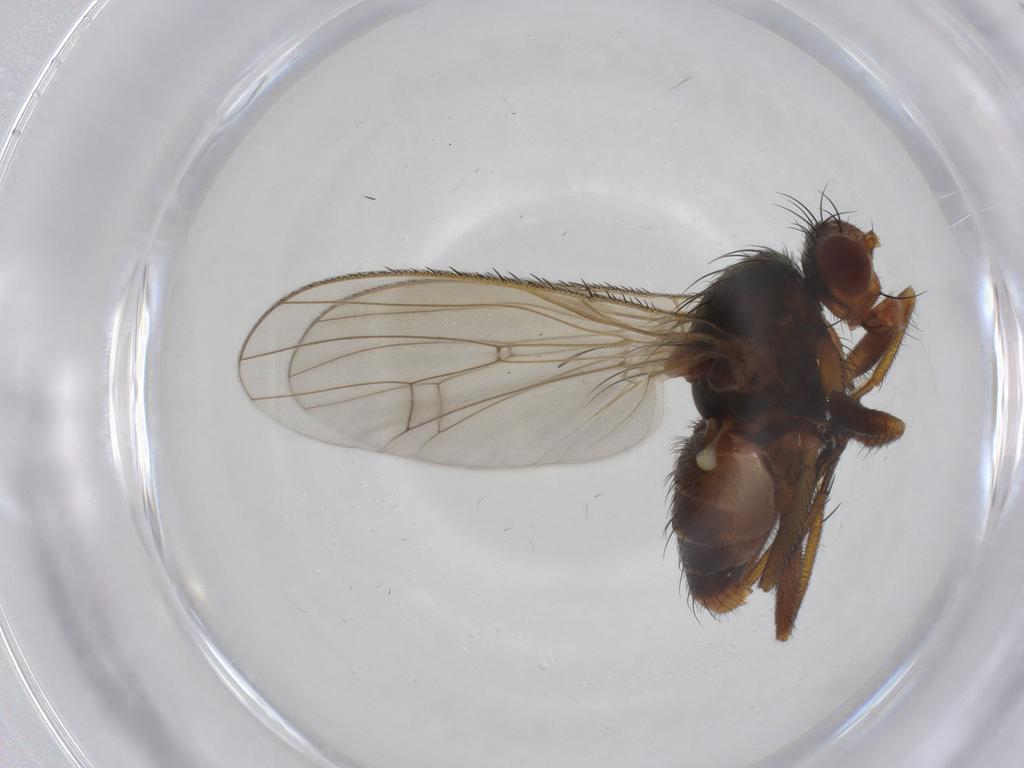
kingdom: Animalia
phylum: Arthropoda
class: Insecta
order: Diptera
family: Heleomyzidae
